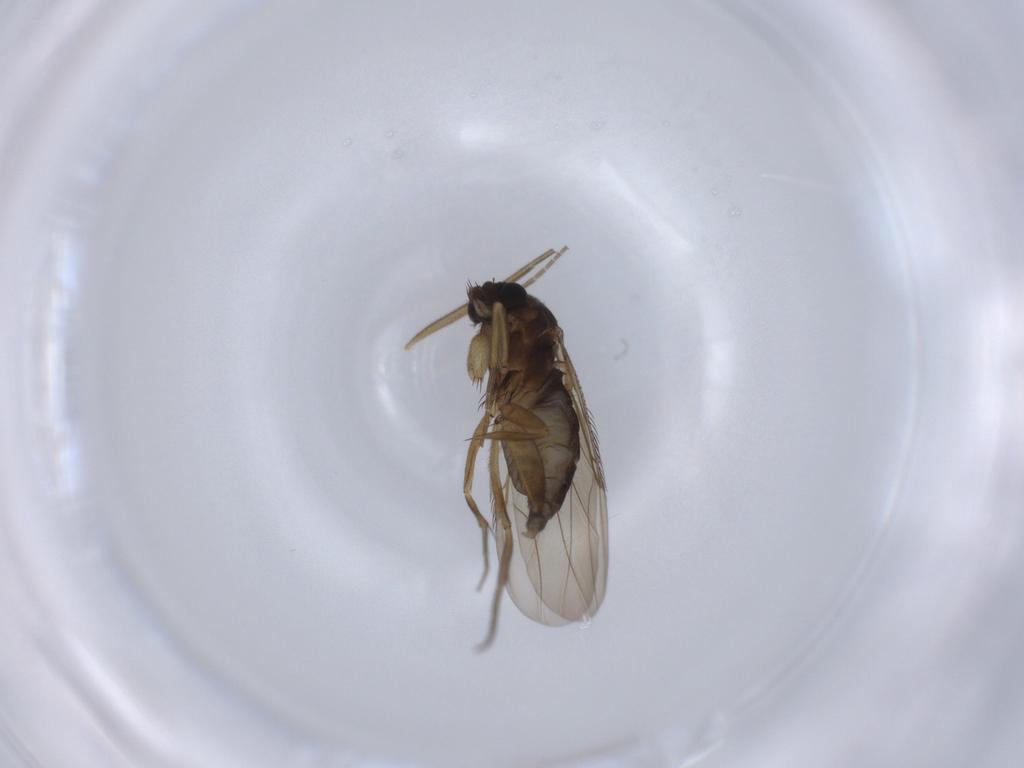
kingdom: Animalia
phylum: Arthropoda
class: Insecta
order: Diptera
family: Phoridae
